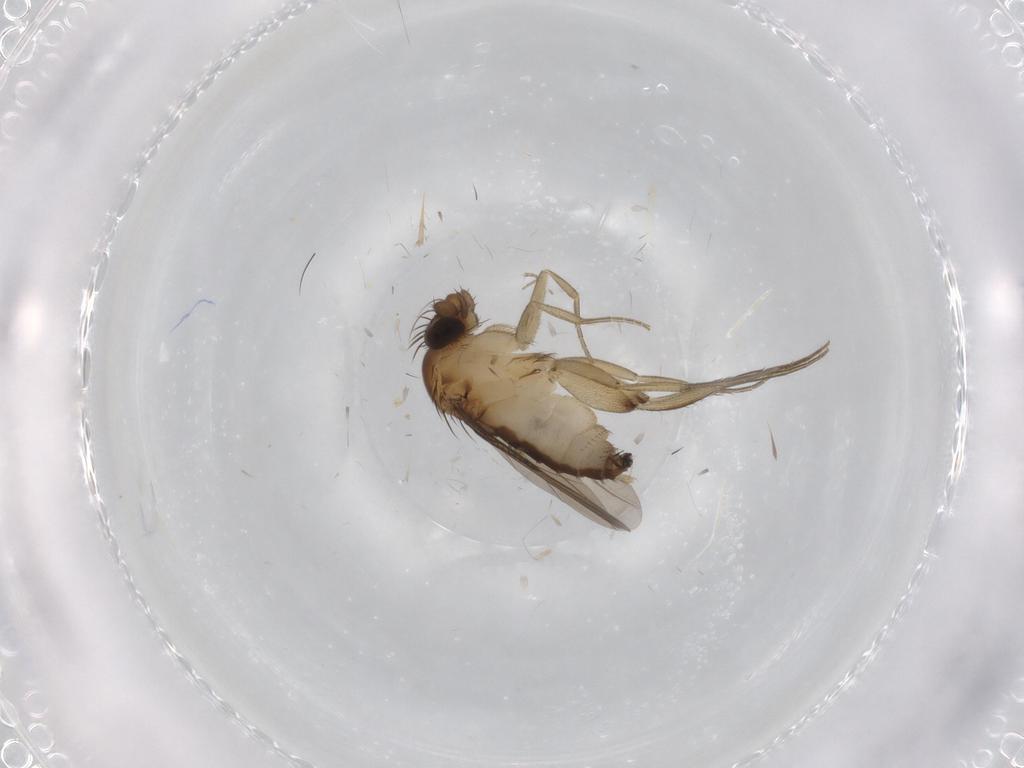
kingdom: Animalia
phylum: Arthropoda
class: Insecta
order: Diptera
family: Phoridae
